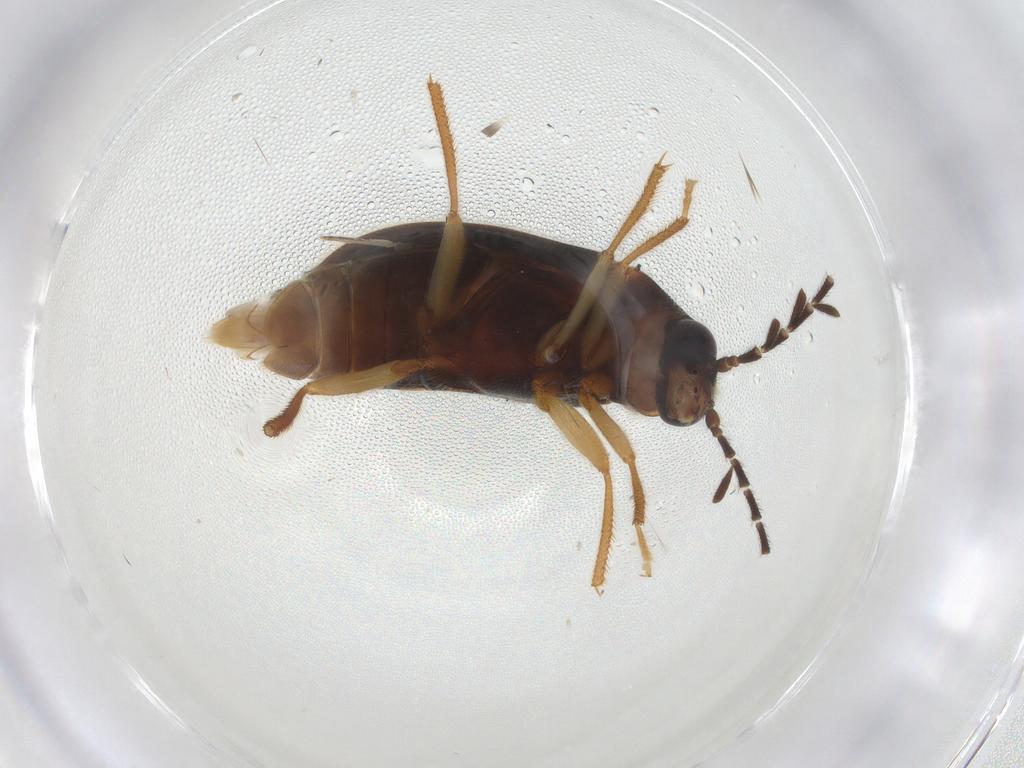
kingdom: Animalia
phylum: Arthropoda
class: Insecta
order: Coleoptera
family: Ptilodactylidae
